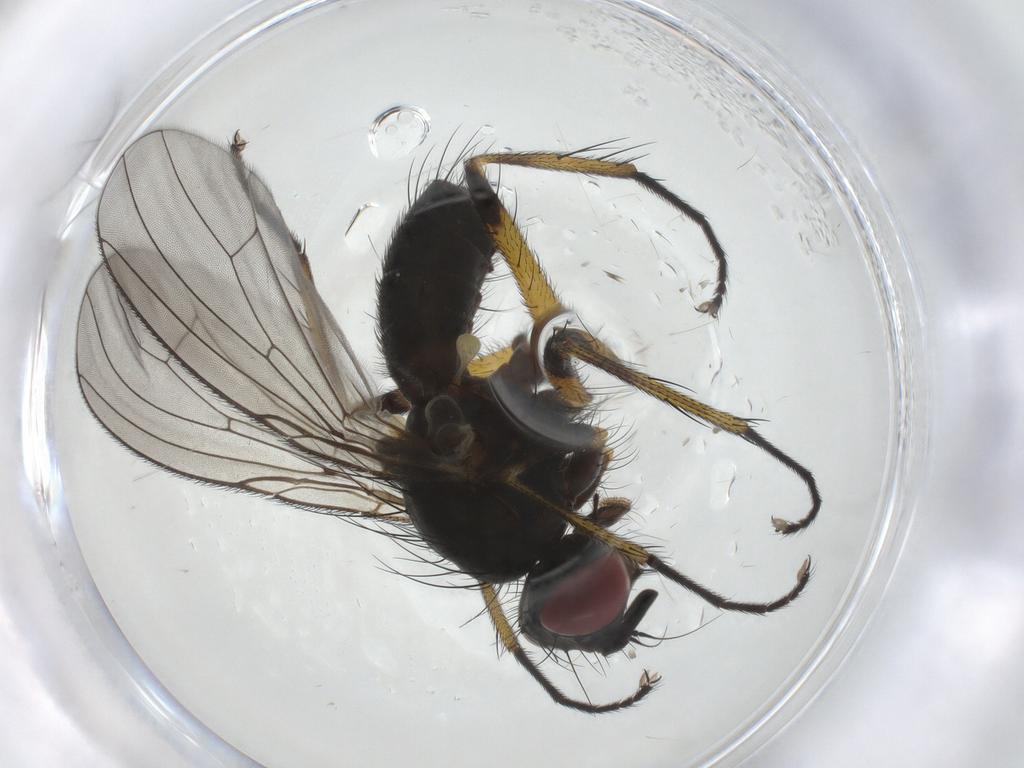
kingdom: Animalia
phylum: Arthropoda
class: Insecta
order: Diptera
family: Muscidae
